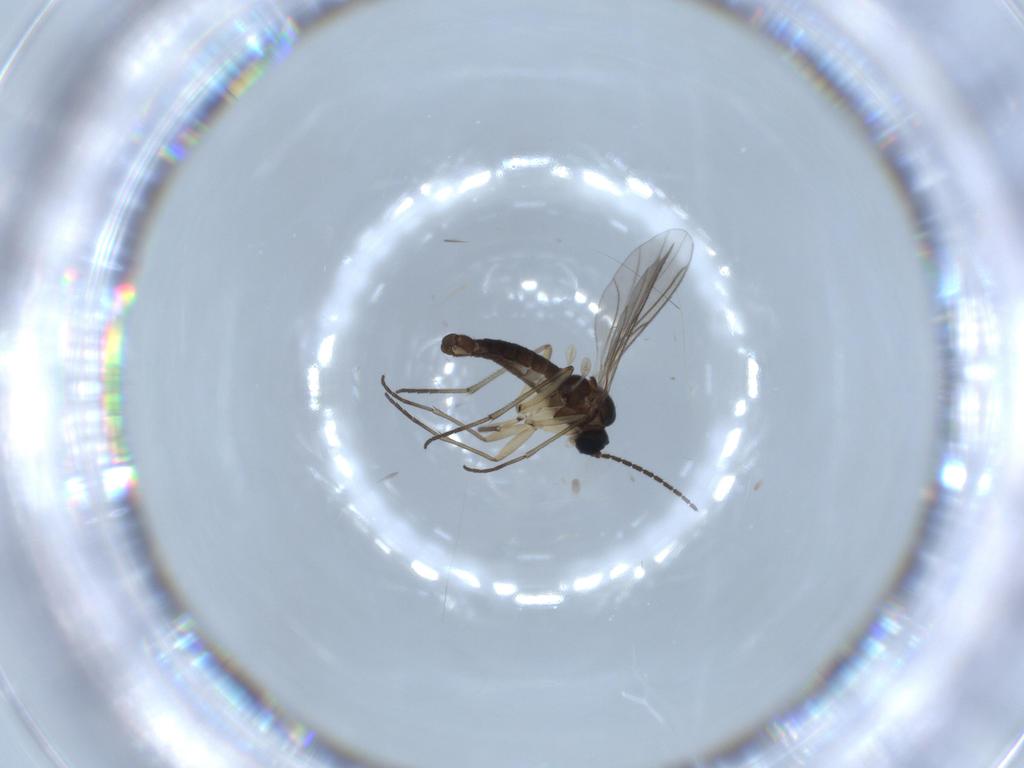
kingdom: Animalia
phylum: Arthropoda
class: Insecta
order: Diptera
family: Sciaridae
